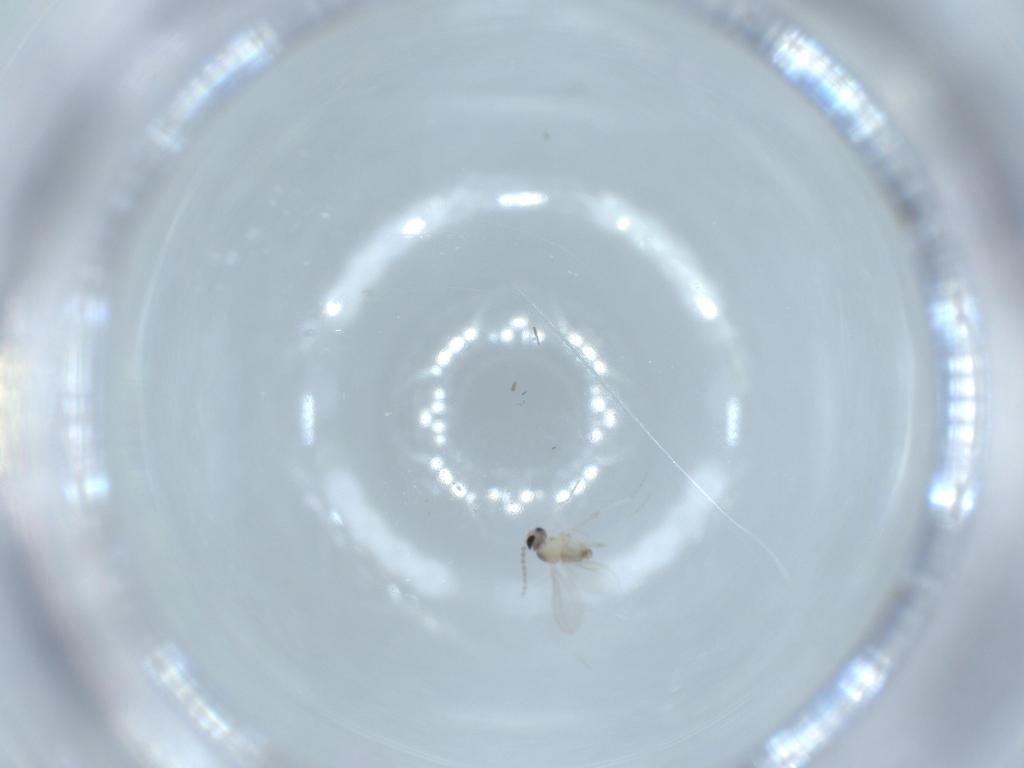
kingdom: Animalia
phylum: Arthropoda
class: Insecta
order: Diptera
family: Cecidomyiidae
